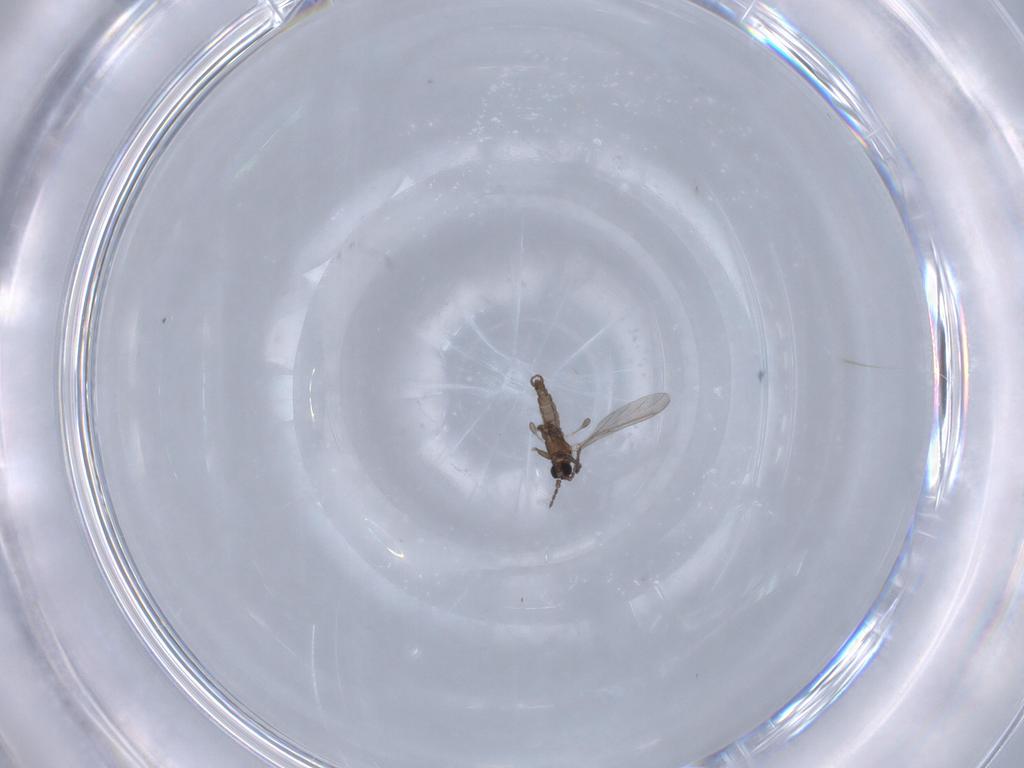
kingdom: Animalia
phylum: Arthropoda
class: Insecta
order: Diptera
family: Cecidomyiidae
